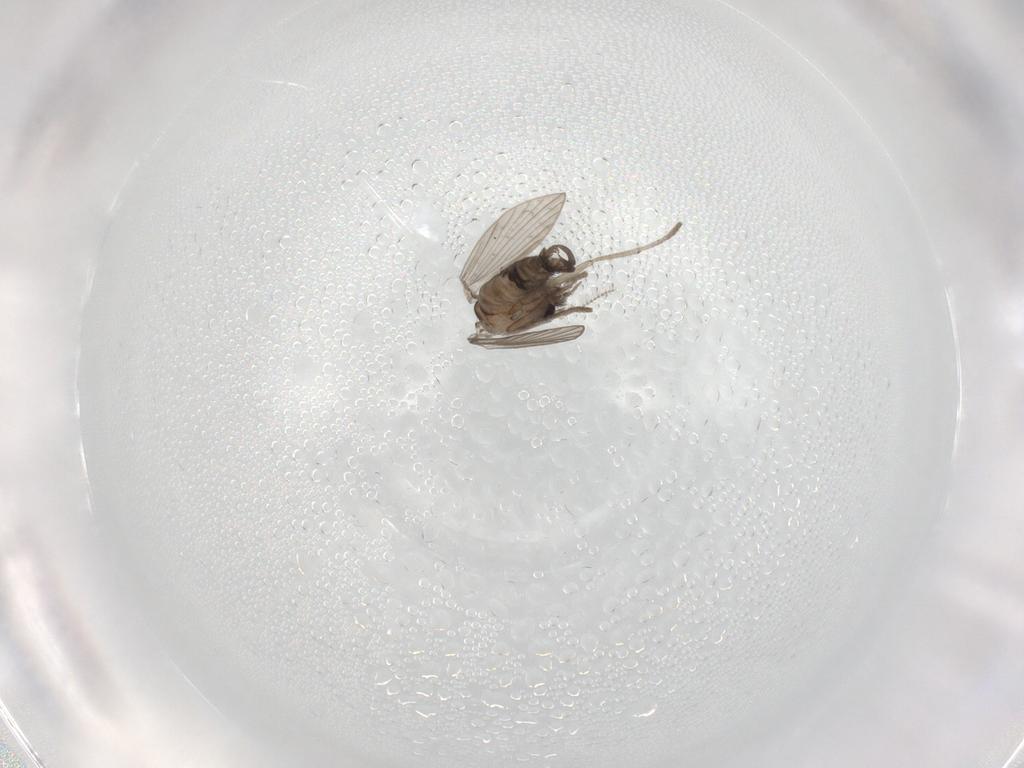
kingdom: Animalia
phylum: Arthropoda
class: Insecta
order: Diptera
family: Psychodidae
